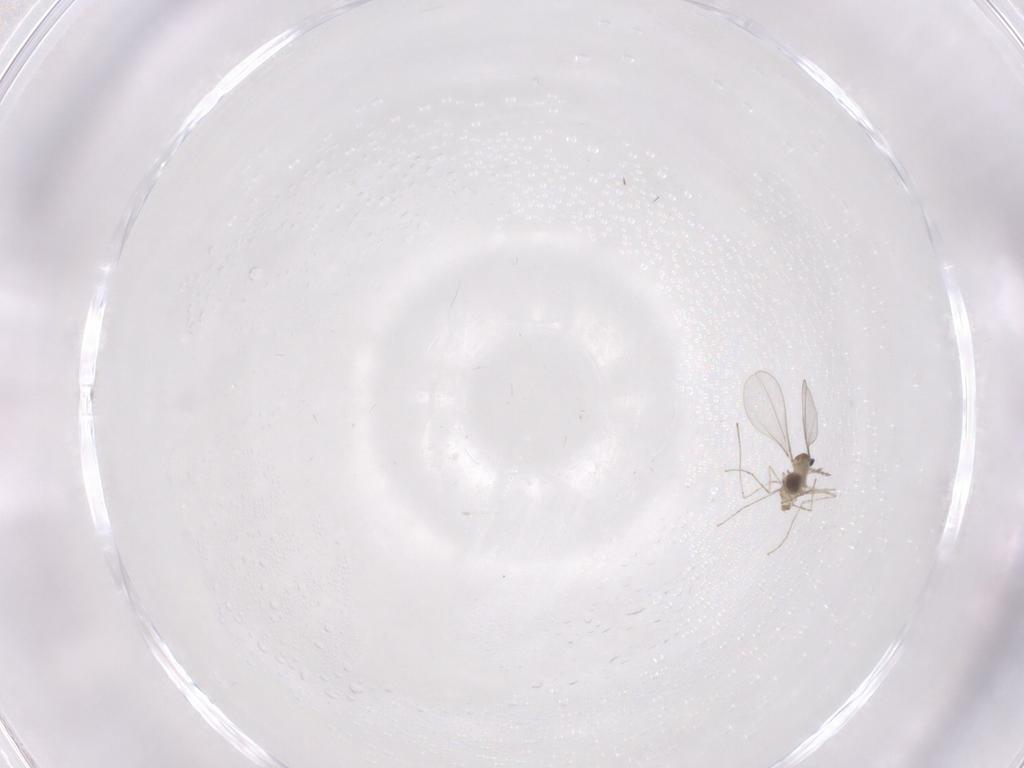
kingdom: Animalia
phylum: Arthropoda
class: Insecta
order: Diptera
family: Cecidomyiidae
